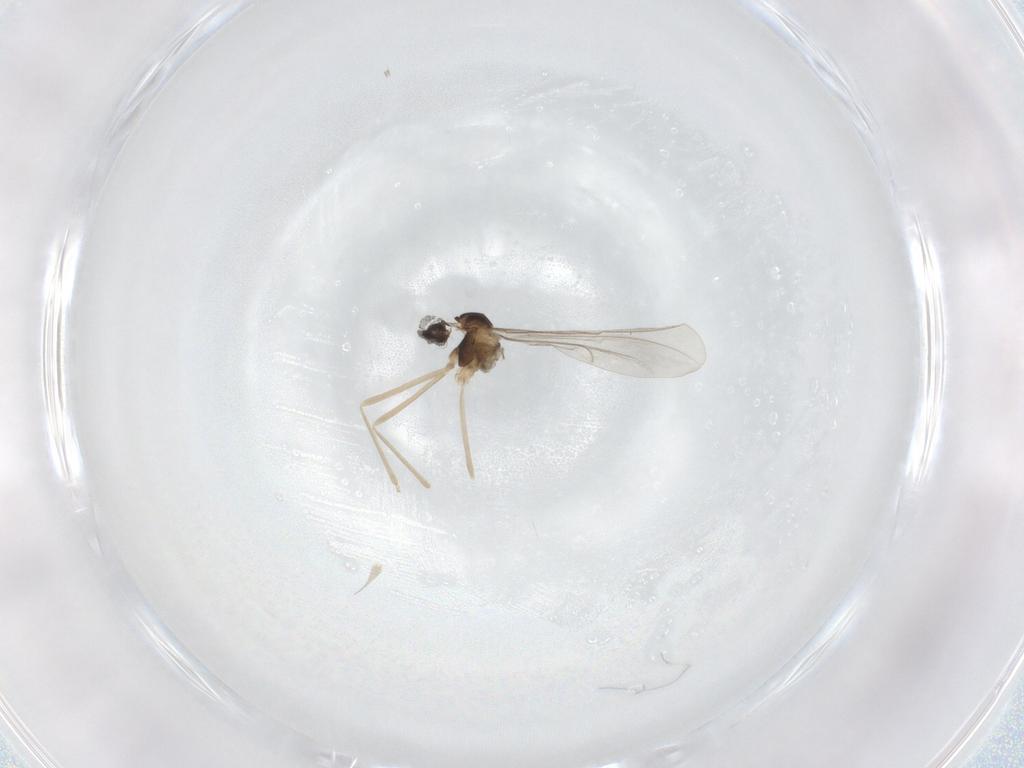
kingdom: Animalia
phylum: Arthropoda
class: Insecta
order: Diptera
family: Cecidomyiidae
